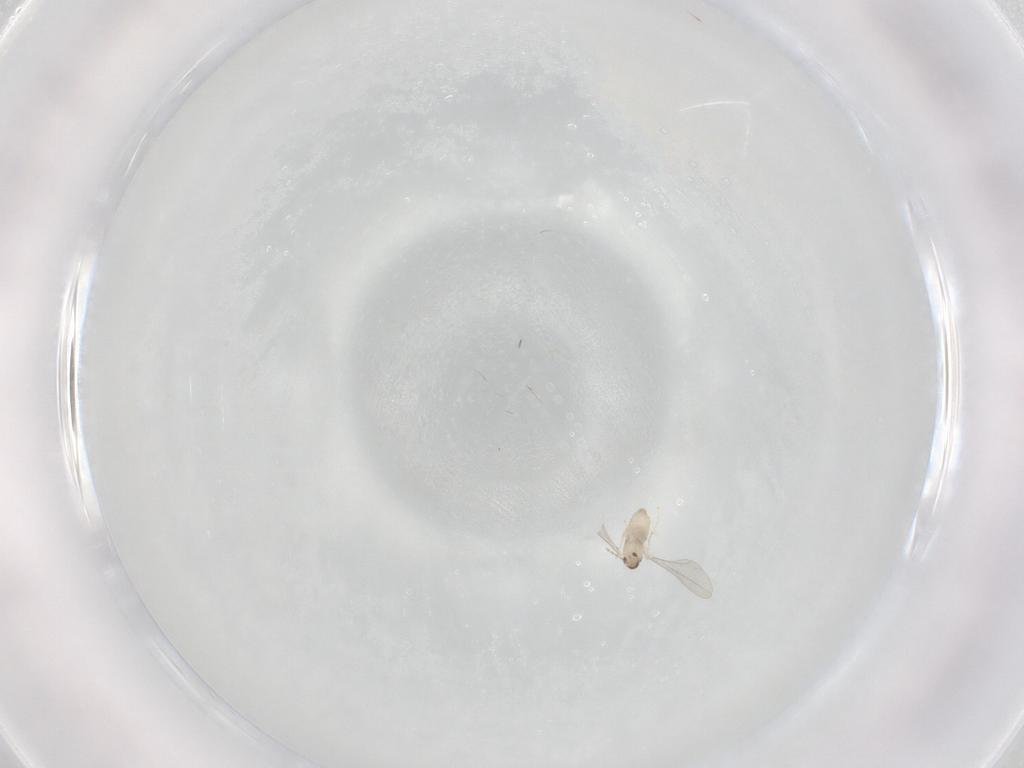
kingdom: Animalia
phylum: Arthropoda
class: Insecta
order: Diptera
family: Cecidomyiidae
